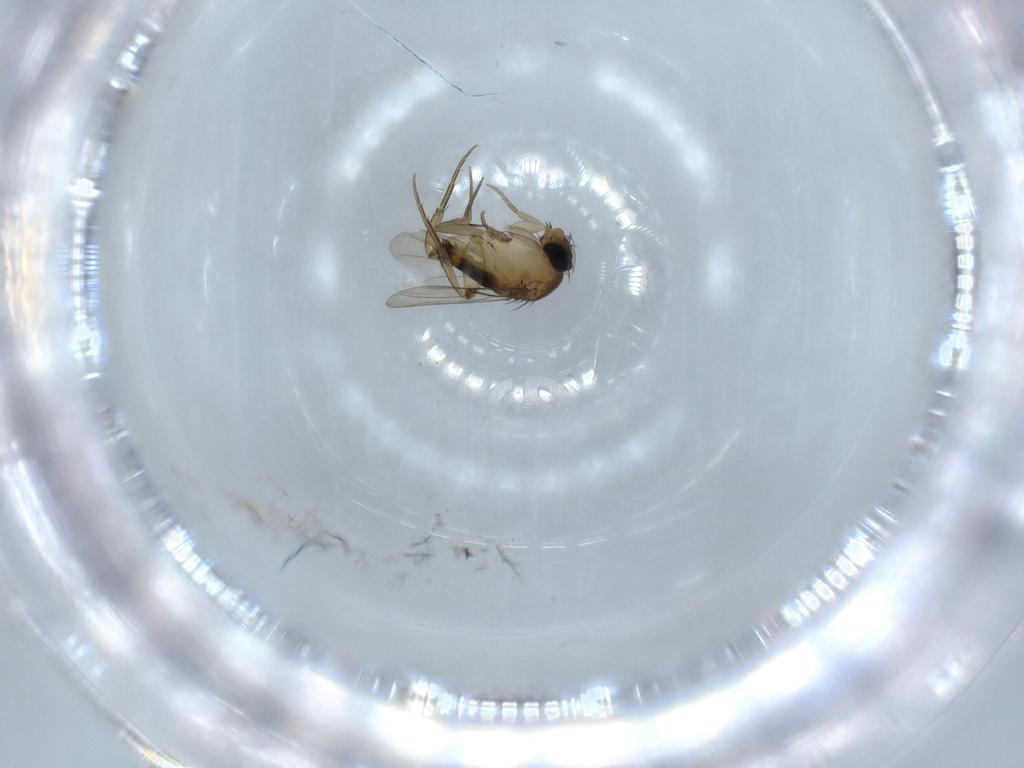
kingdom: Animalia
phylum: Arthropoda
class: Insecta
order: Diptera
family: Phoridae
